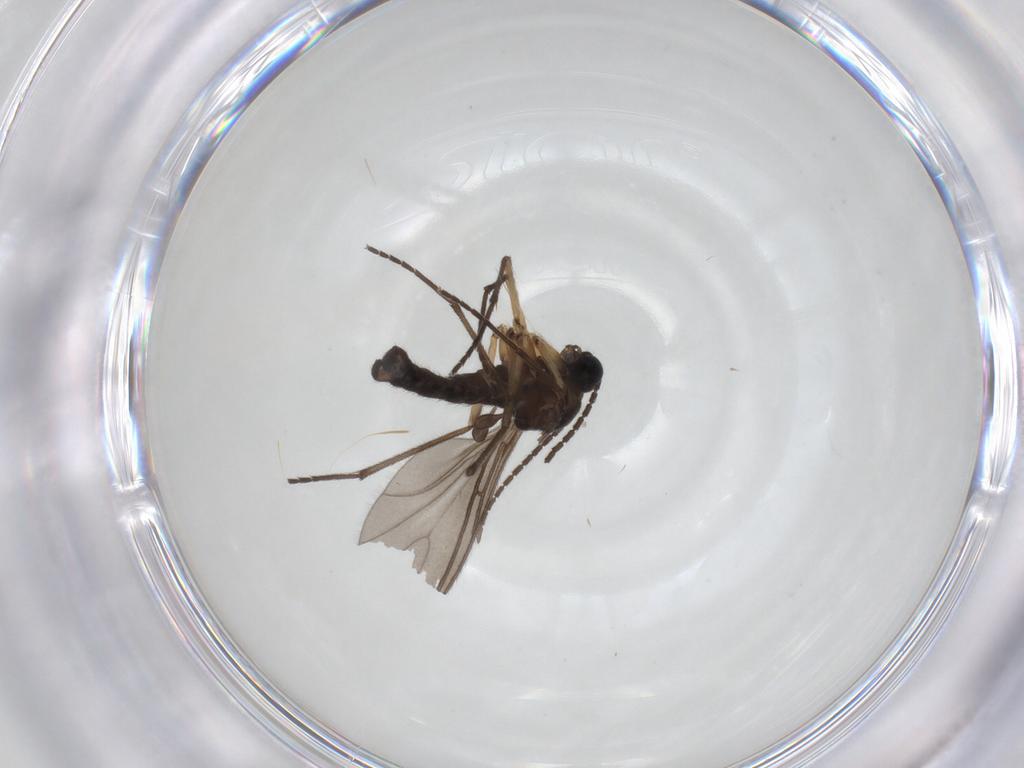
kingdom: Animalia
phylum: Arthropoda
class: Insecta
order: Diptera
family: Sciaridae
